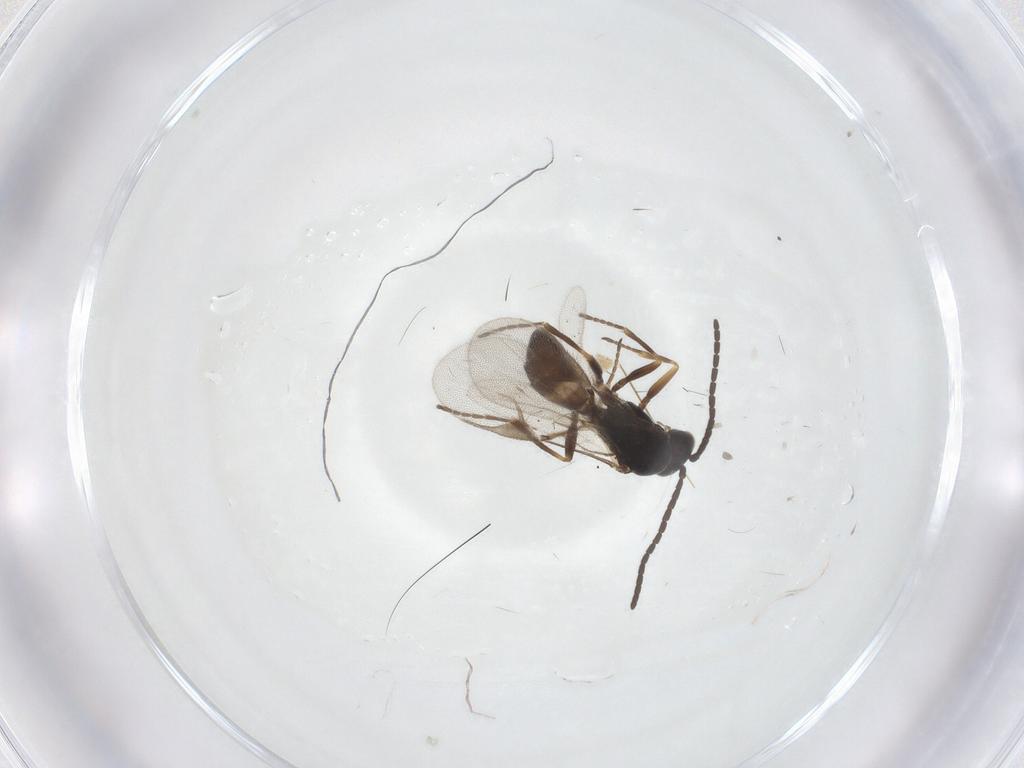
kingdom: Animalia
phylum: Arthropoda
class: Insecta
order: Hymenoptera
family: Braconidae
